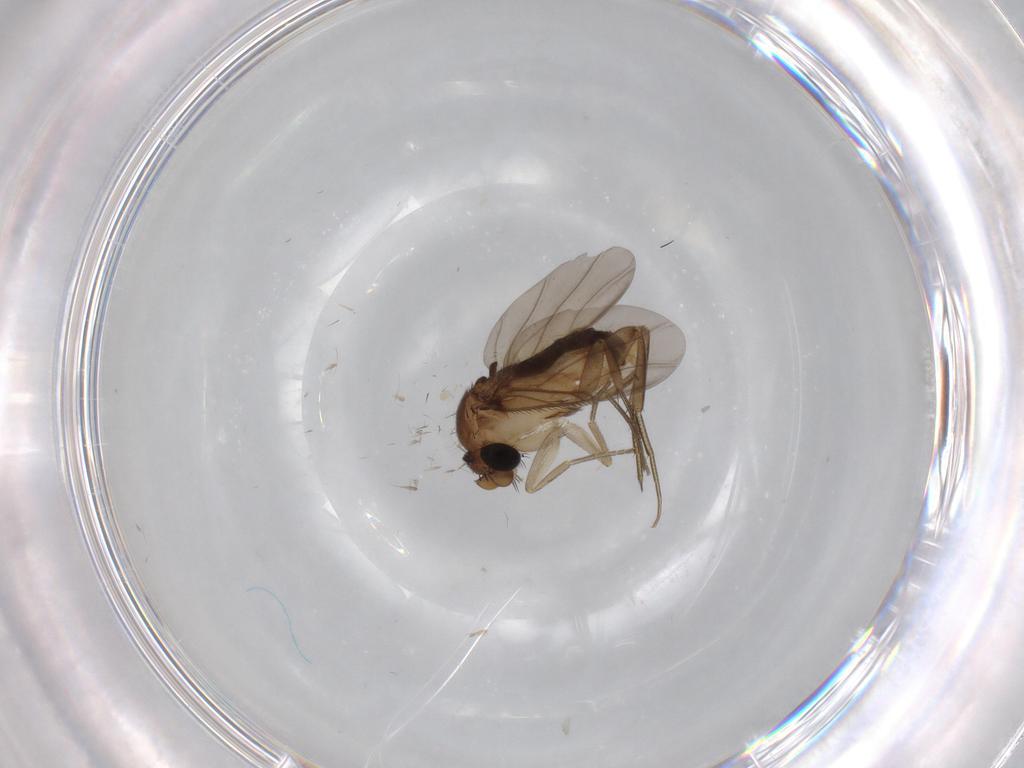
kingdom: Animalia
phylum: Arthropoda
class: Insecta
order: Diptera
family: Phoridae
